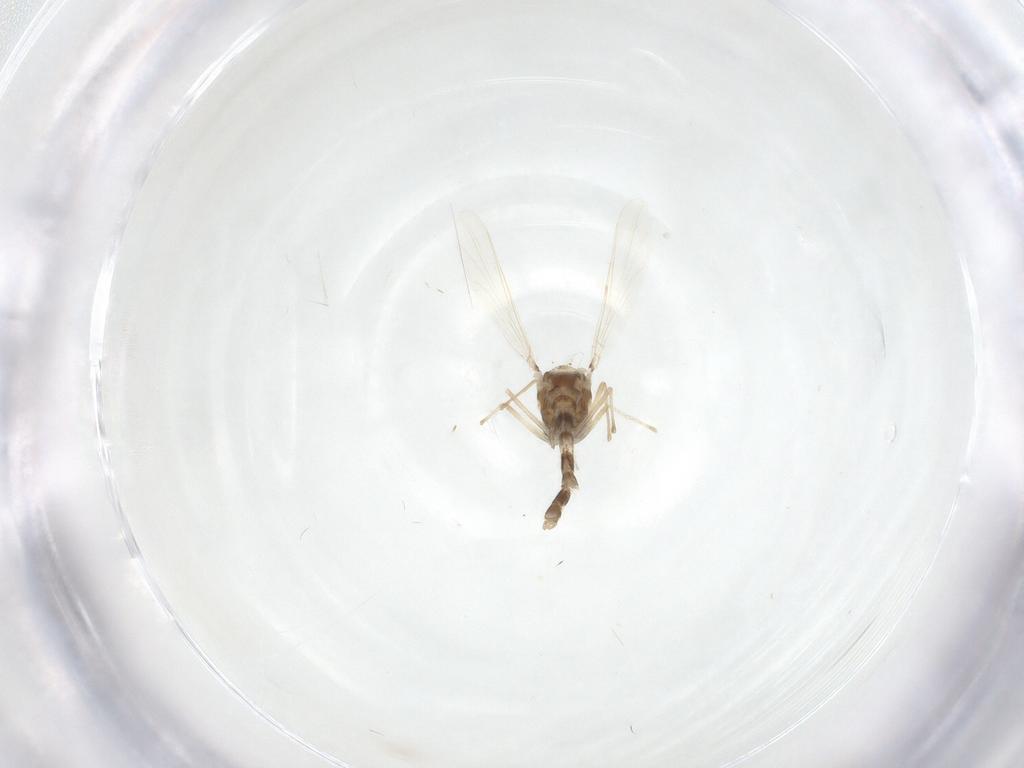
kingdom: Animalia
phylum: Arthropoda
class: Insecta
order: Diptera
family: Chironomidae
